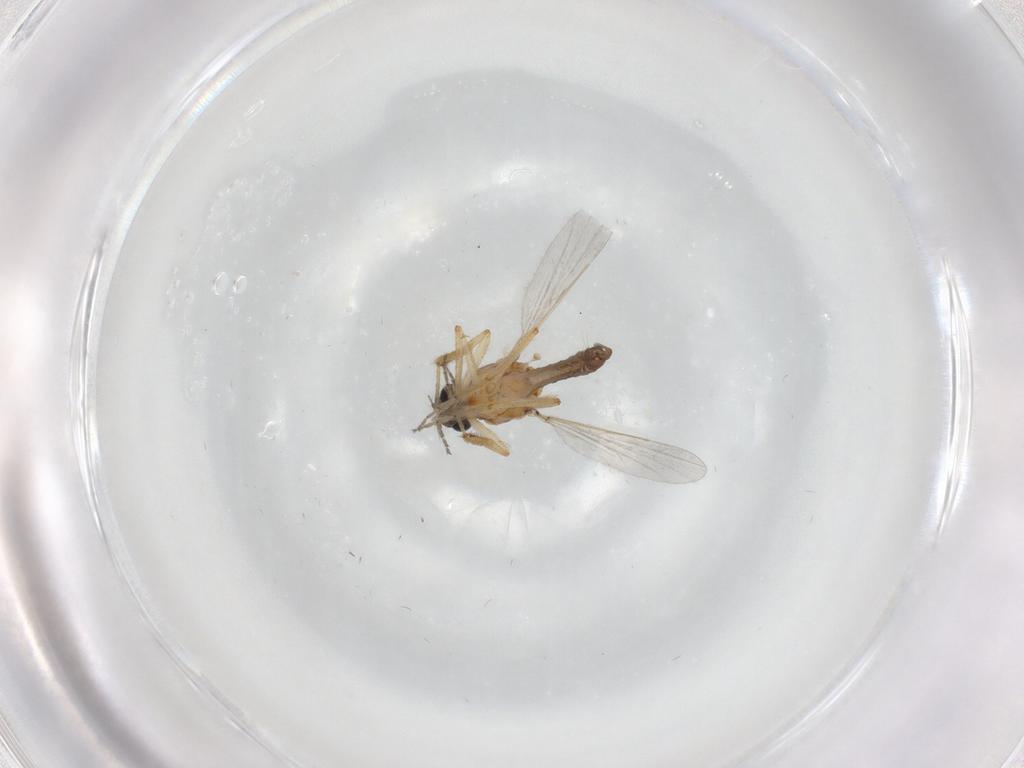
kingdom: Animalia
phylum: Arthropoda
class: Insecta
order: Diptera
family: Ceratopogonidae
